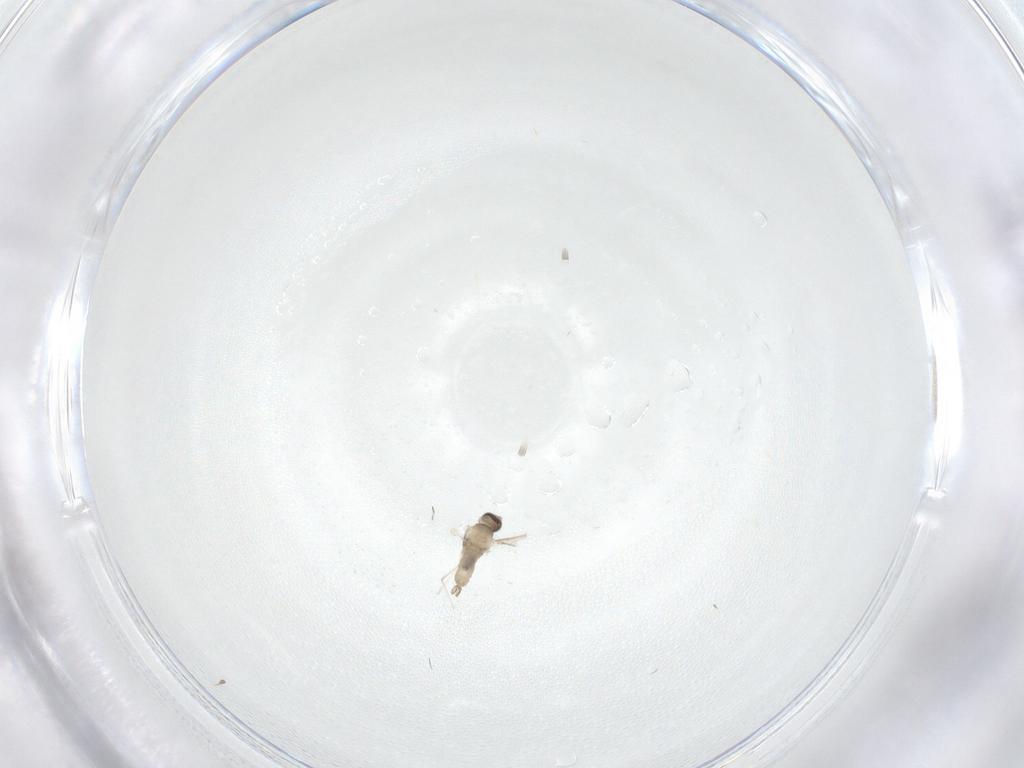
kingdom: Animalia
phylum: Arthropoda
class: Insecta
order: Diptera
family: Cecidomyiidae
